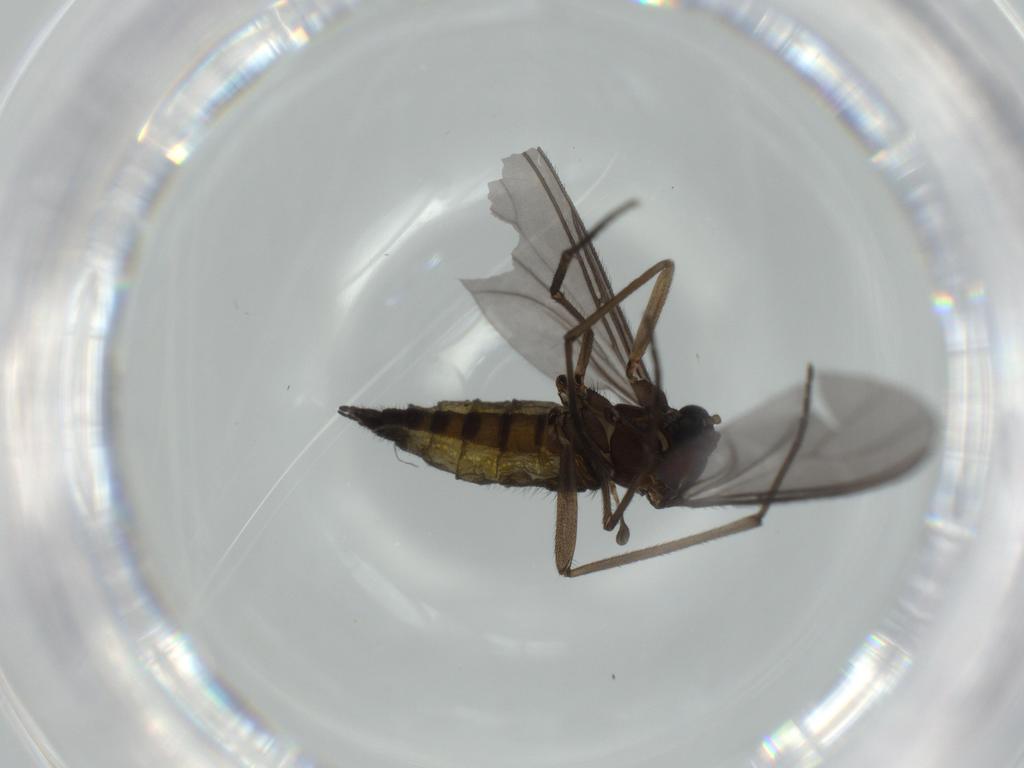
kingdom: Animalia
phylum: Arthropoda
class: Insecta
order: Diptera
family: Sciaridae
